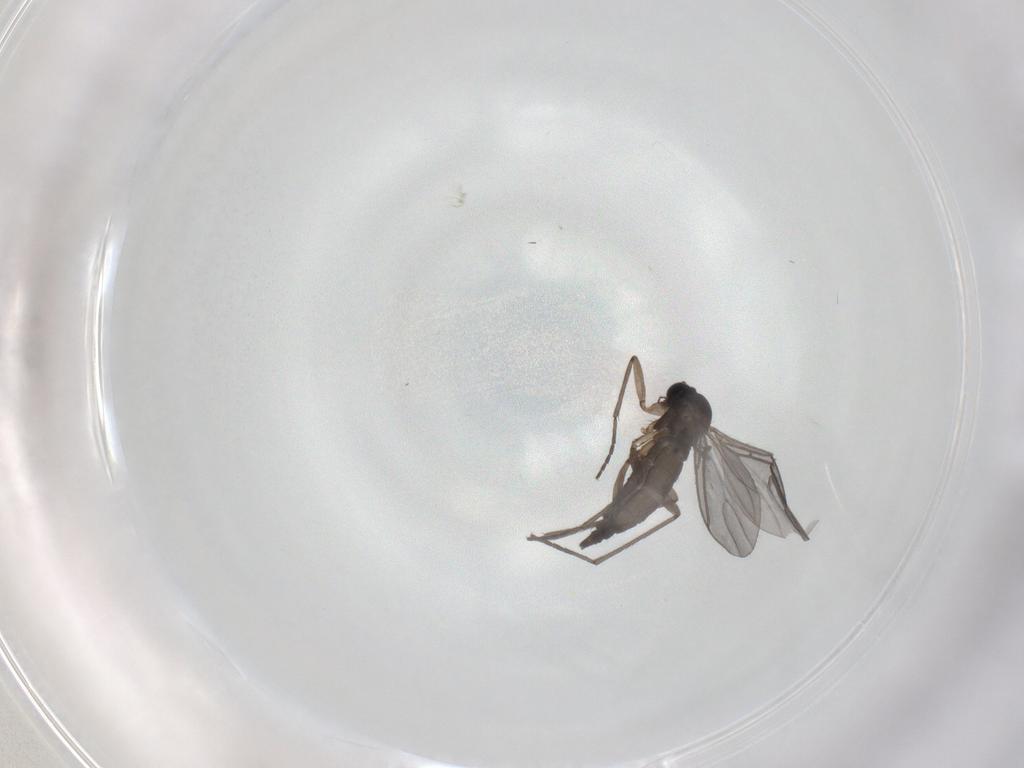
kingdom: Animalia
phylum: Arthropoda
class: Insecta
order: Diptera
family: Sciaridae
